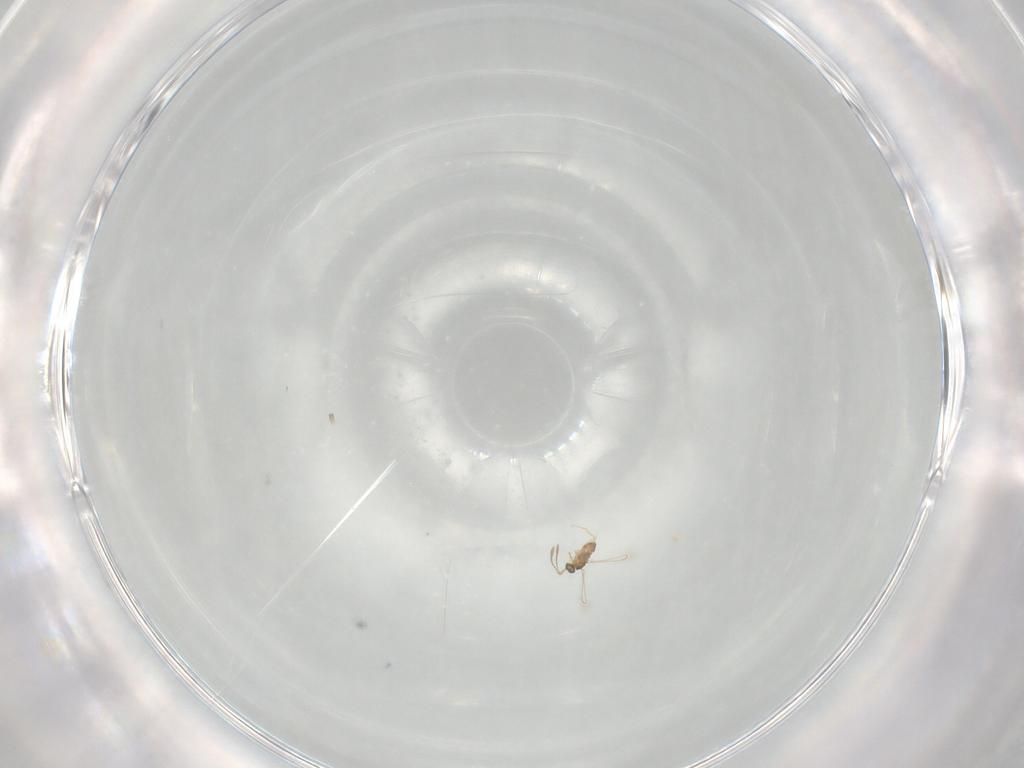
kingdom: Animalia
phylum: Arthropoda
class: Insecta
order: Hymenoptera
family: Mymaridae
